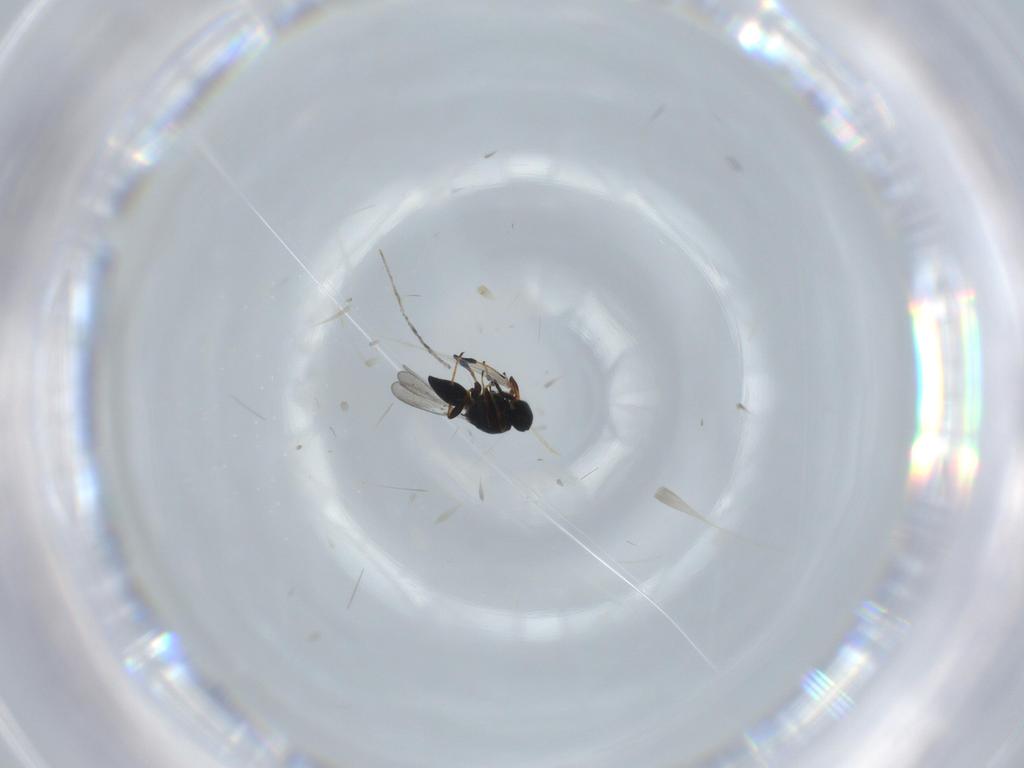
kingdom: Animalia
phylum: Arthropoda
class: Insecta
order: Hymenoptera
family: Platygastridae
